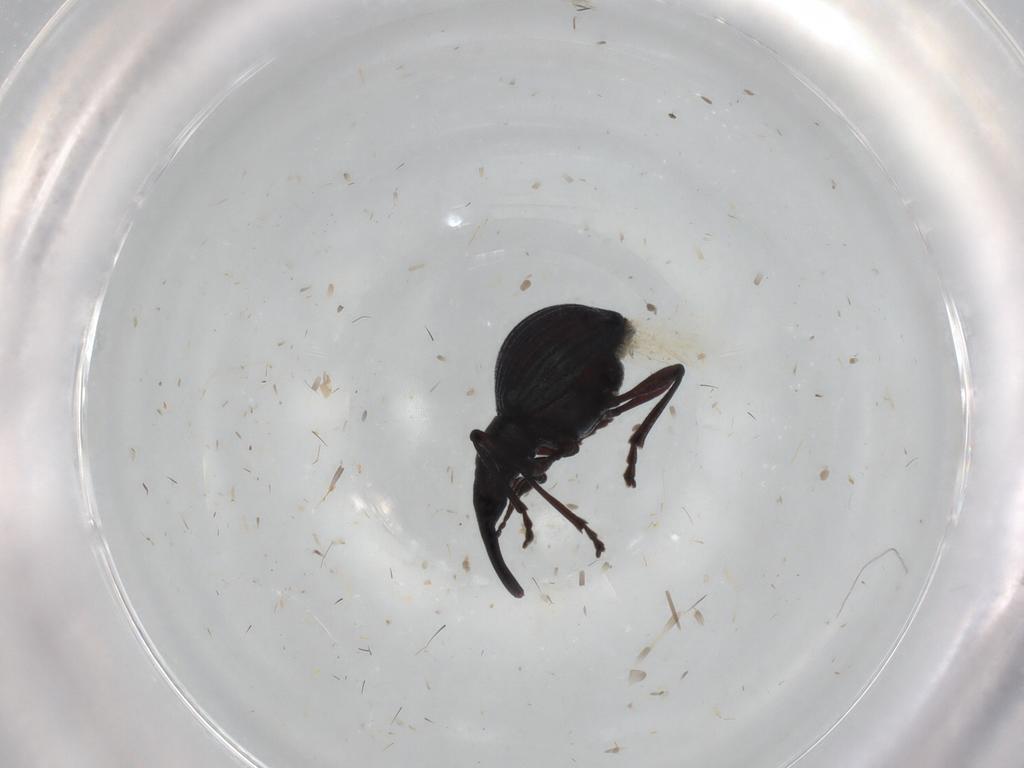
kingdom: Animalia
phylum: Arthropoda
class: Insecta
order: Coleoptera
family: Brentidae
